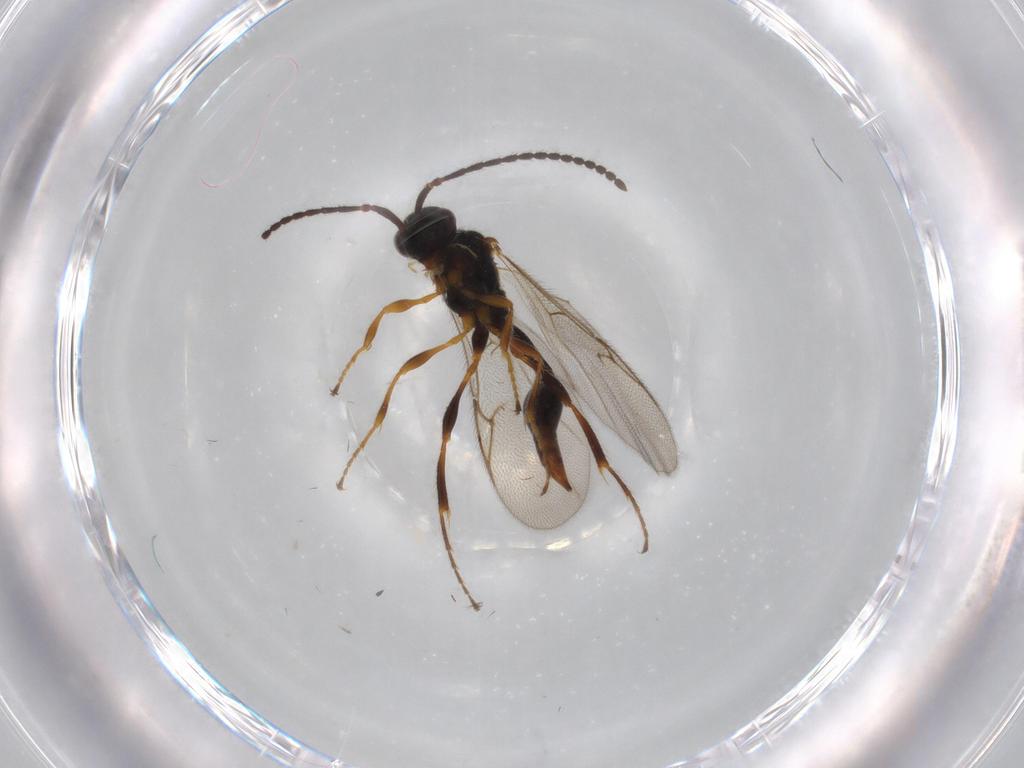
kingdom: Animalia
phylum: Arthropoda
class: Insecta
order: Hymenoptera
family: Diapriidae
